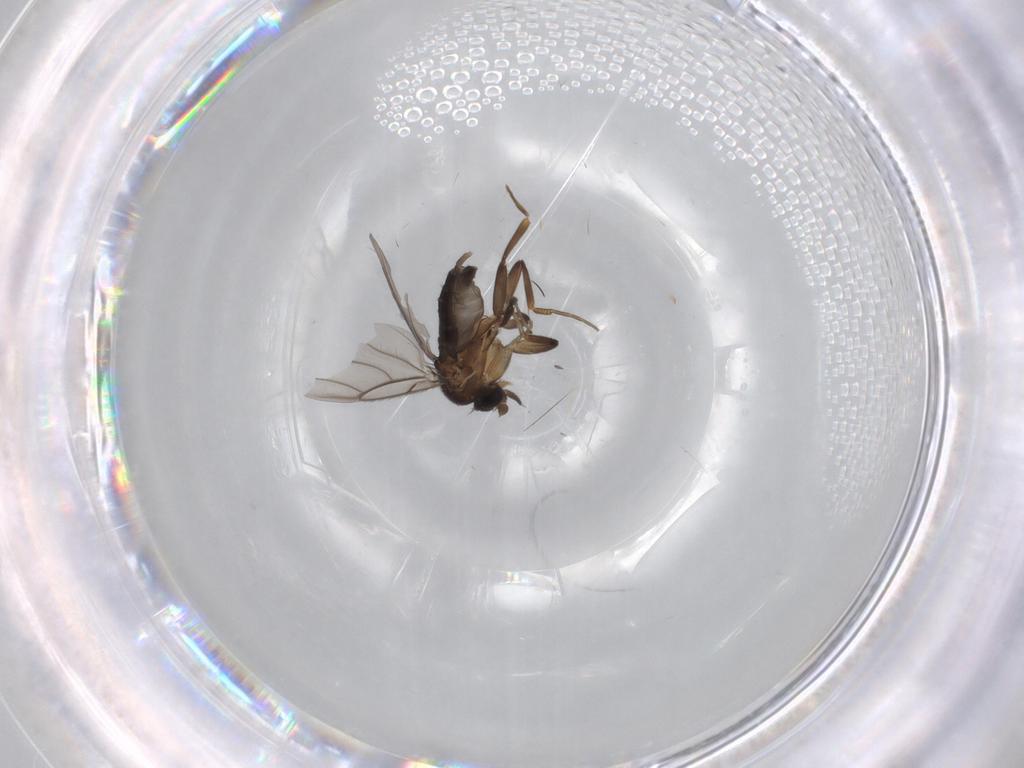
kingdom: Animalia
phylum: Arthropoda
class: Insecta
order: Diptera
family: Phoridae
